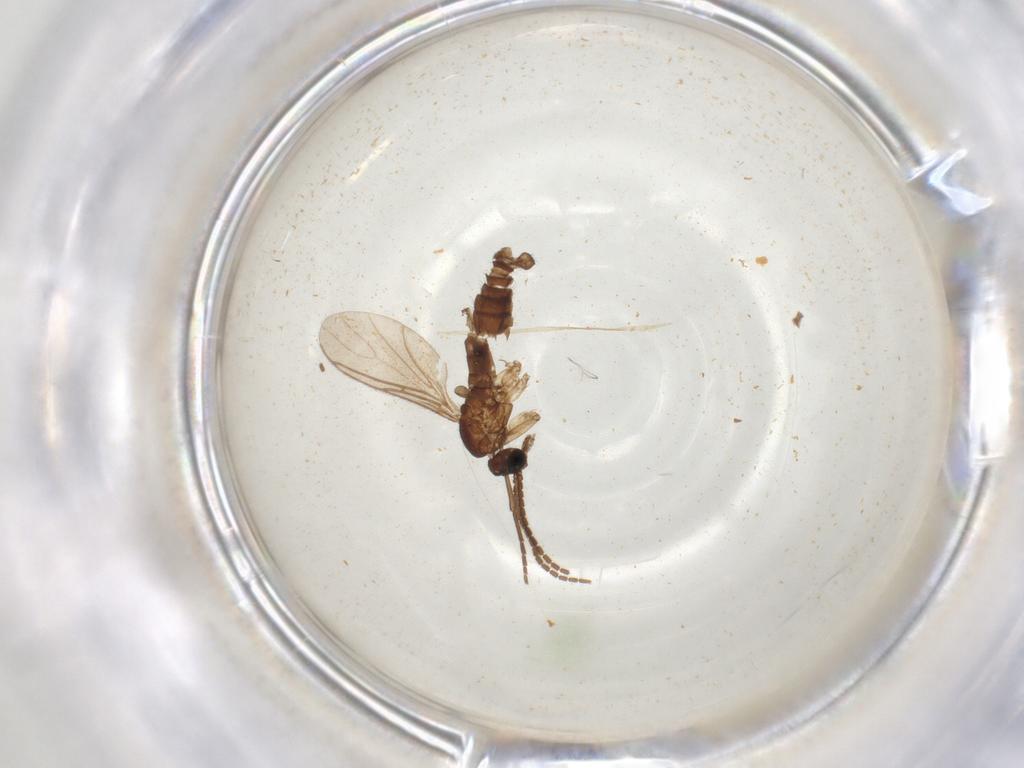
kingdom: Animalia
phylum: Arthropoda
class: Insecta
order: Diptera
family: Sciaridae
